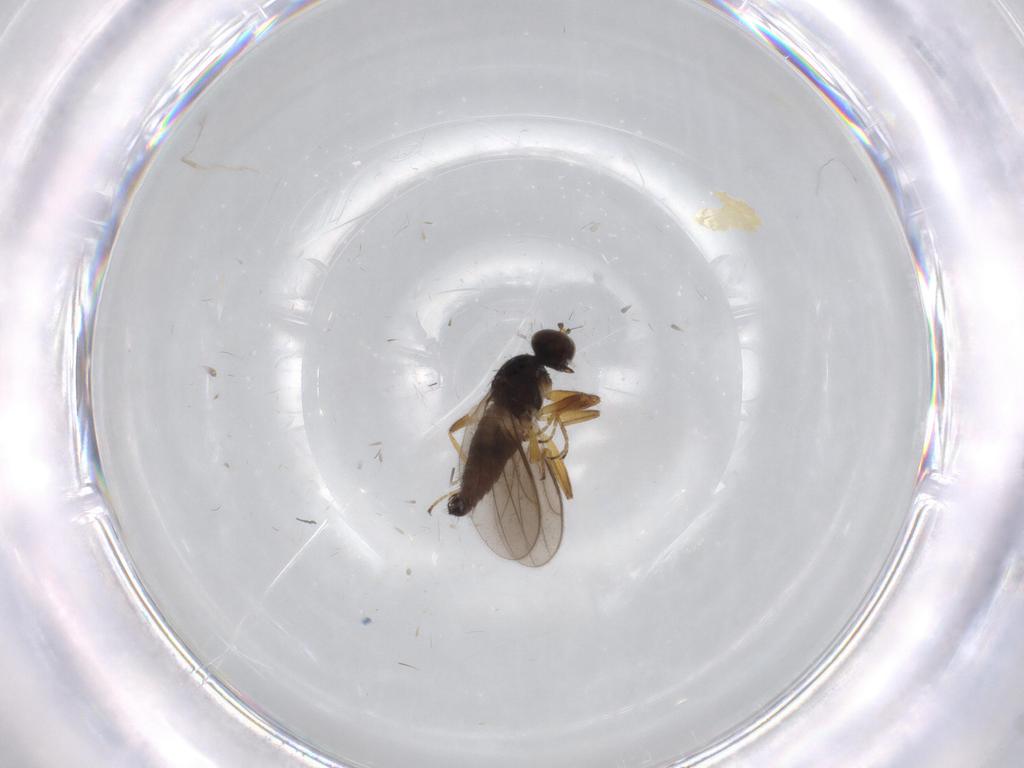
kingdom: Animalia
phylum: Arthropoda
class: Insecta
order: Diptera
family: Hybotidae
